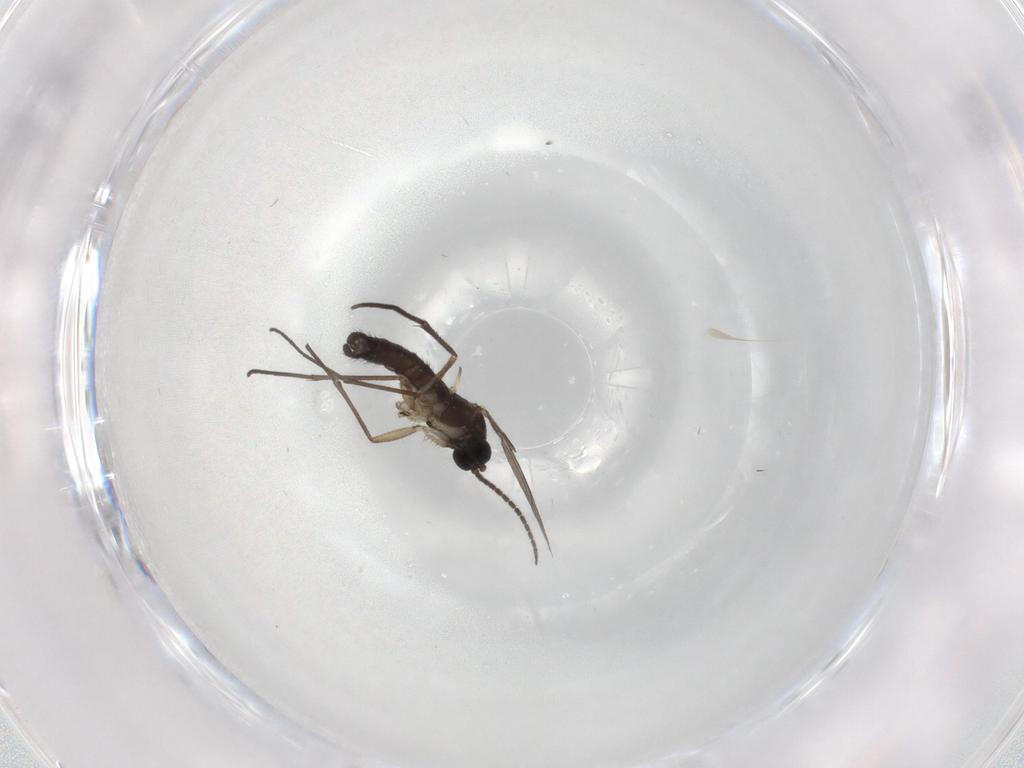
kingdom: Animalia
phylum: Arthropoda
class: Insecta
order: Diptera
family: Sciaridae
